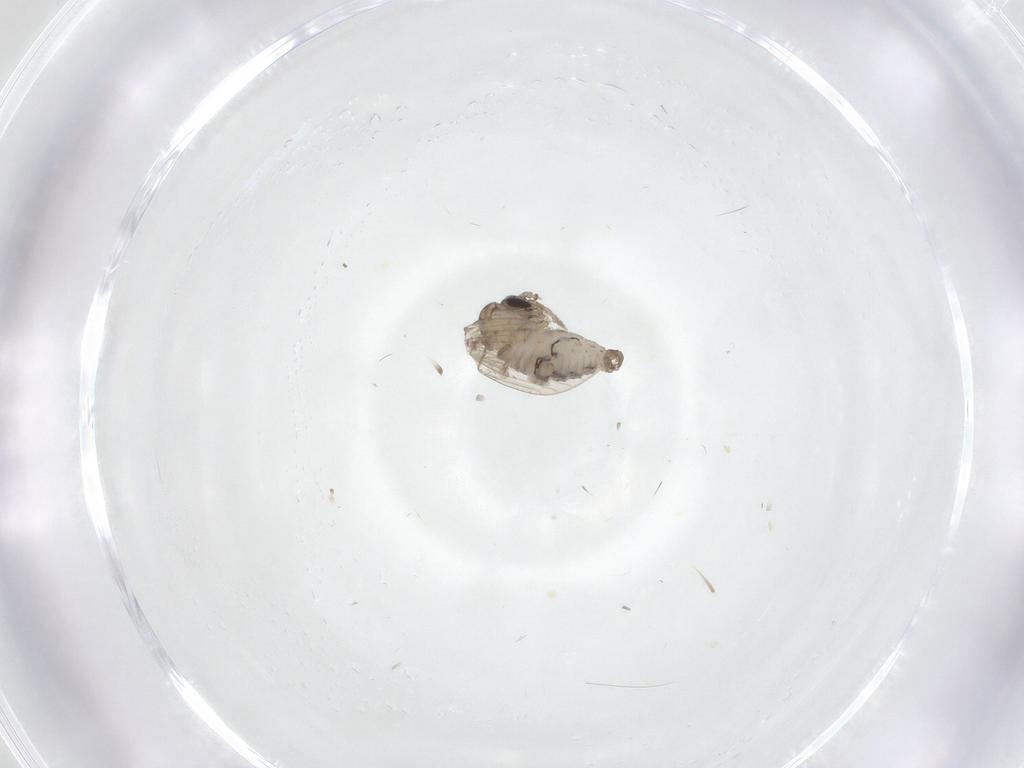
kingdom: Animalia
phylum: Arthropoda
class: Insecta
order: Diptera
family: Psychodidae
